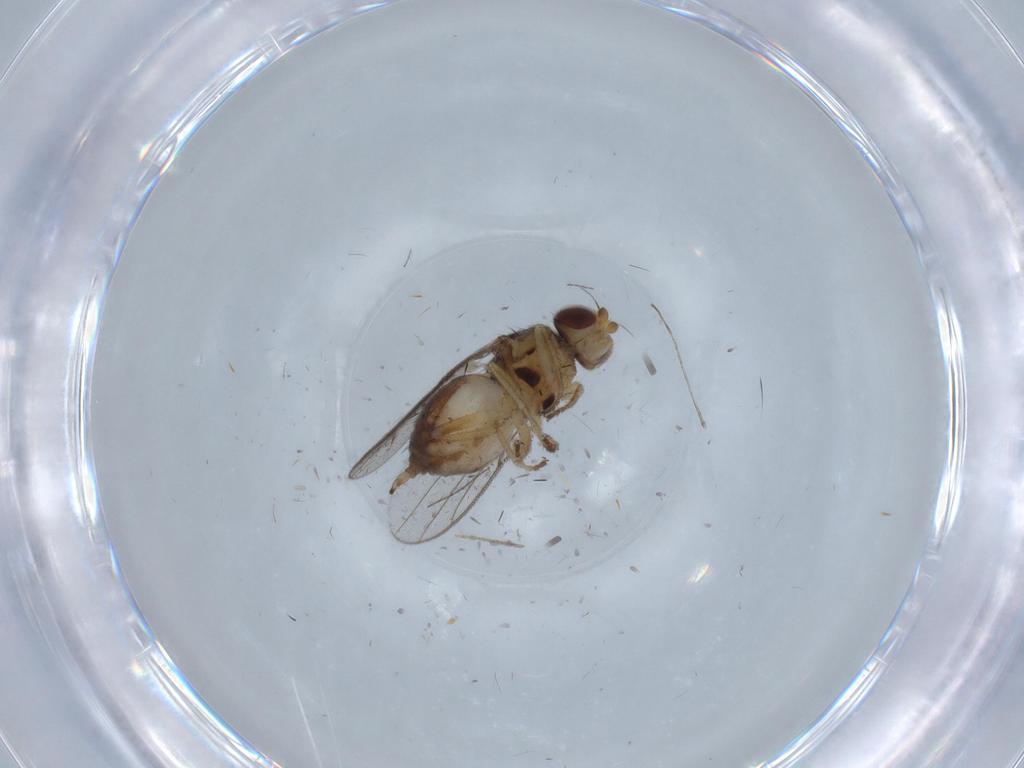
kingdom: Animalia
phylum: Arthropoda
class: Insecta
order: Diptera
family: Chloropidae
